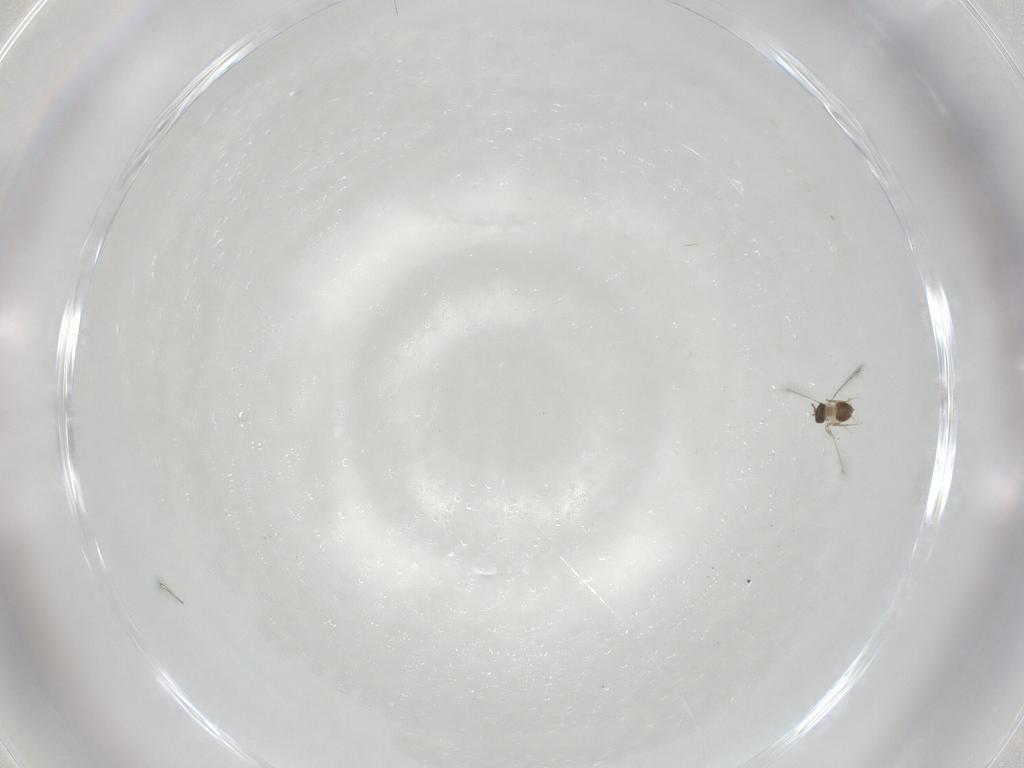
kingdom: Animalia
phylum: Arthropoda
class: Insecta
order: Hymenoptera
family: Mymaridae
